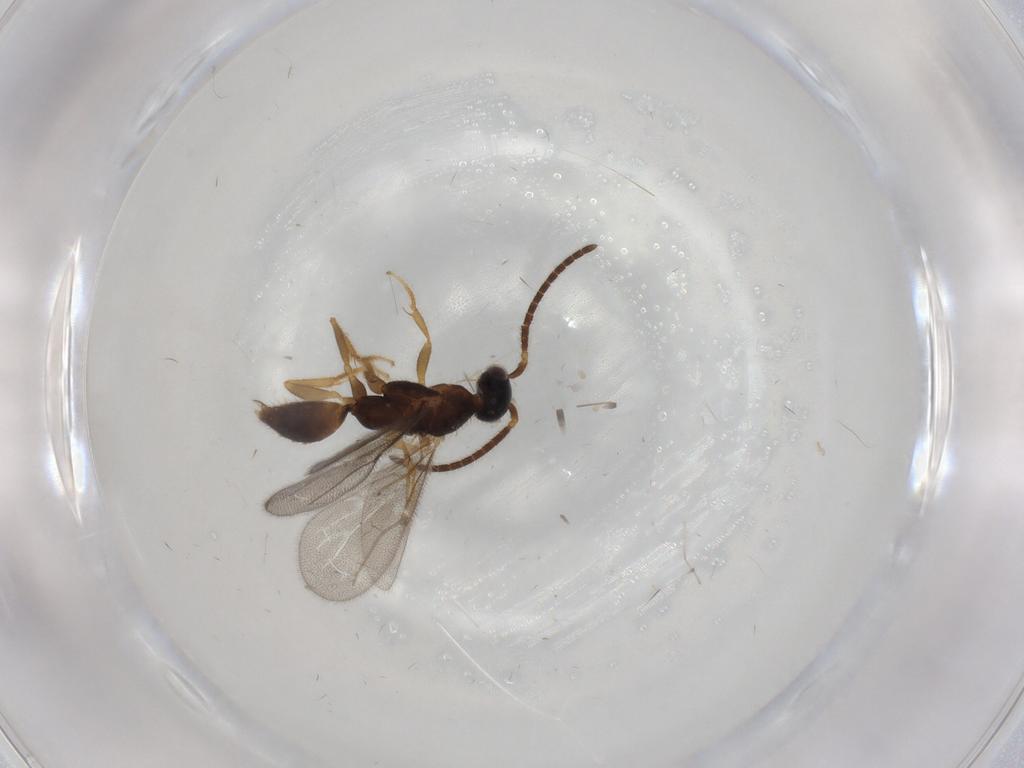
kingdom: Animalia
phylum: Arthropoda
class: Insecta
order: Hymenoptera
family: Bethylidae
